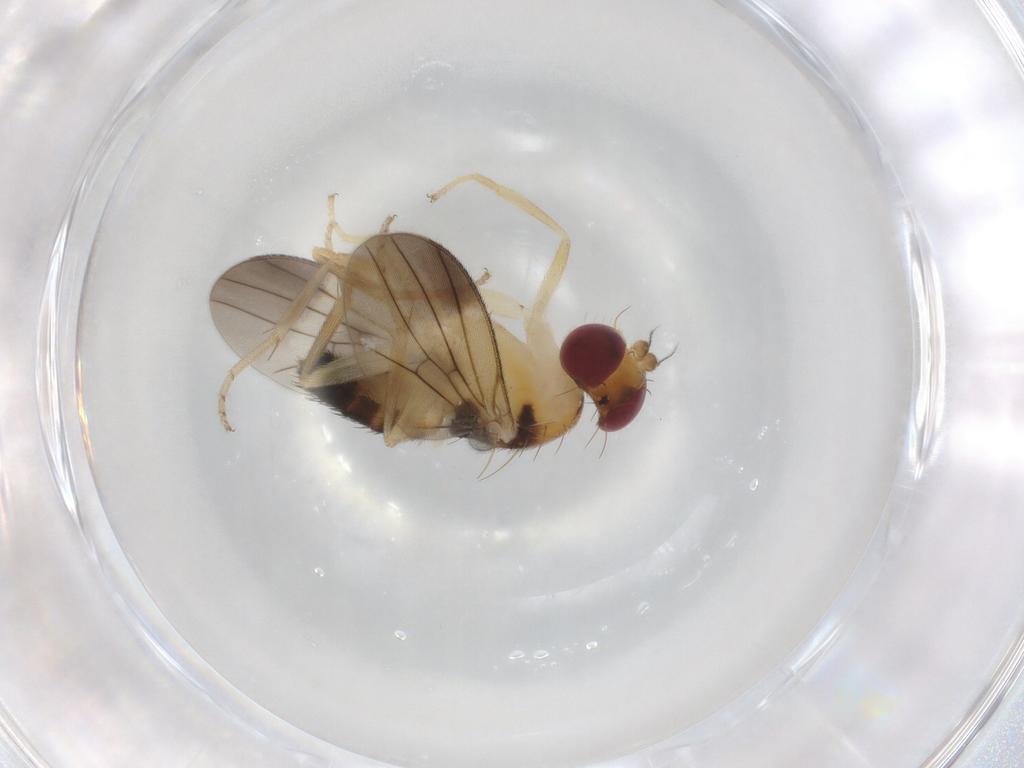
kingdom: Animalia
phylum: Arthropoda
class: Insecta
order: Diptera
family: Clusiidae
